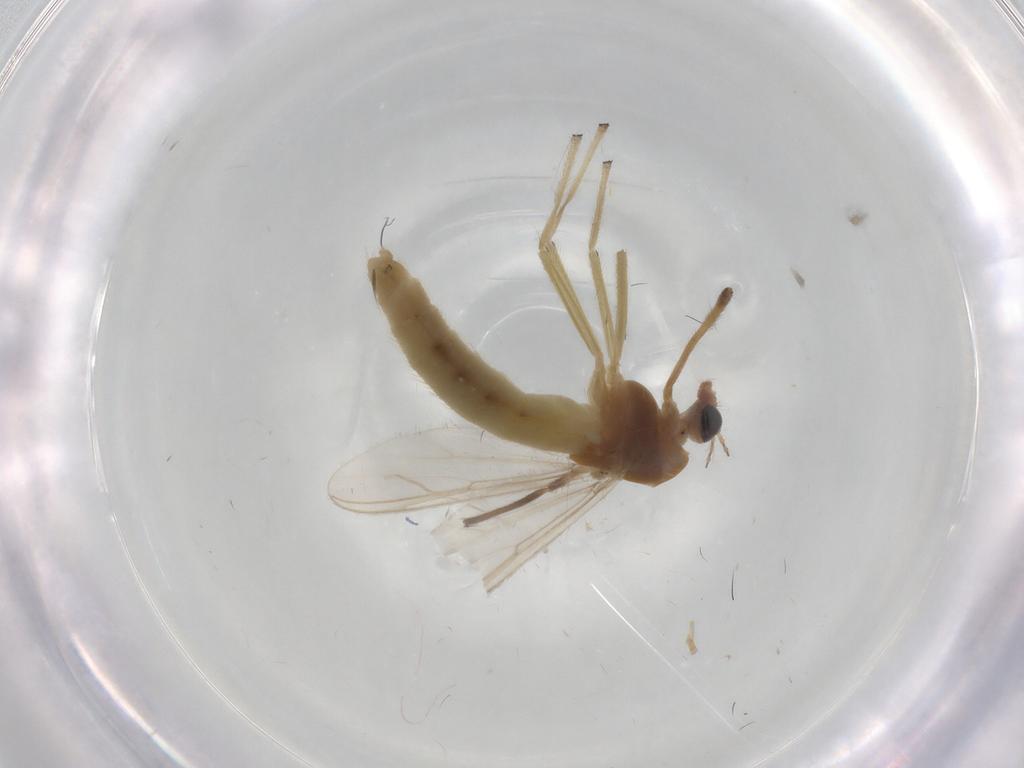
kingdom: Animalia
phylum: Arthropoda
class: Insecta
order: Diptera
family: Chironomidae
